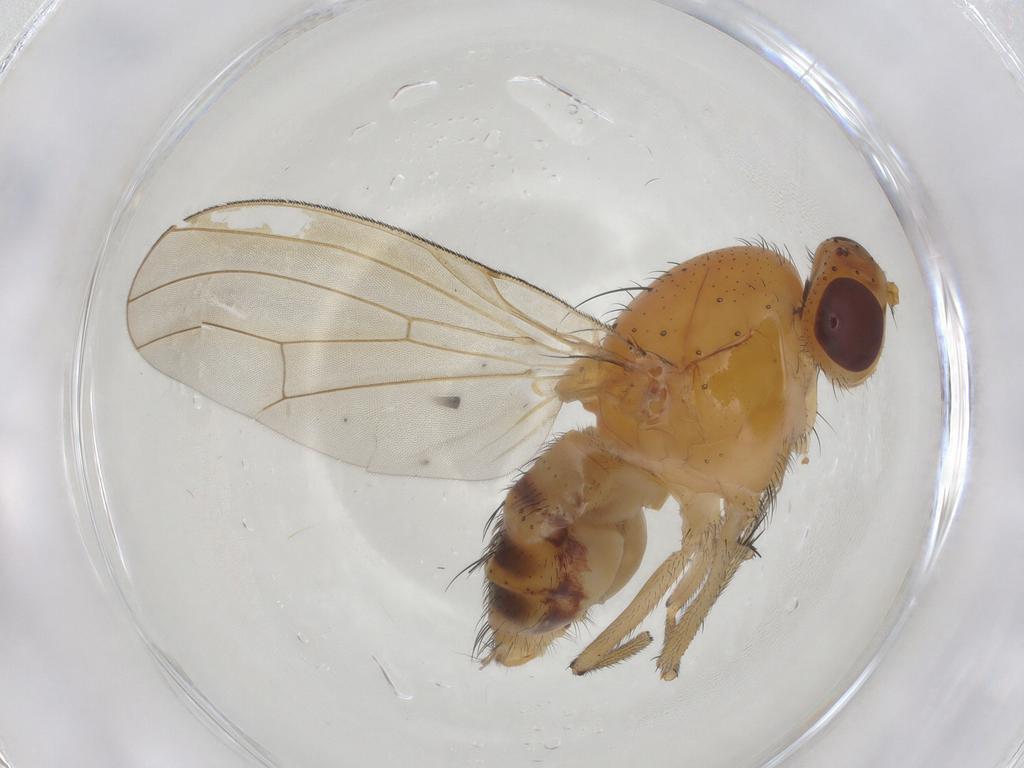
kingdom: Animalia
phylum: Arthropoda
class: Insecta
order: Diptera
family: Chironomidae
